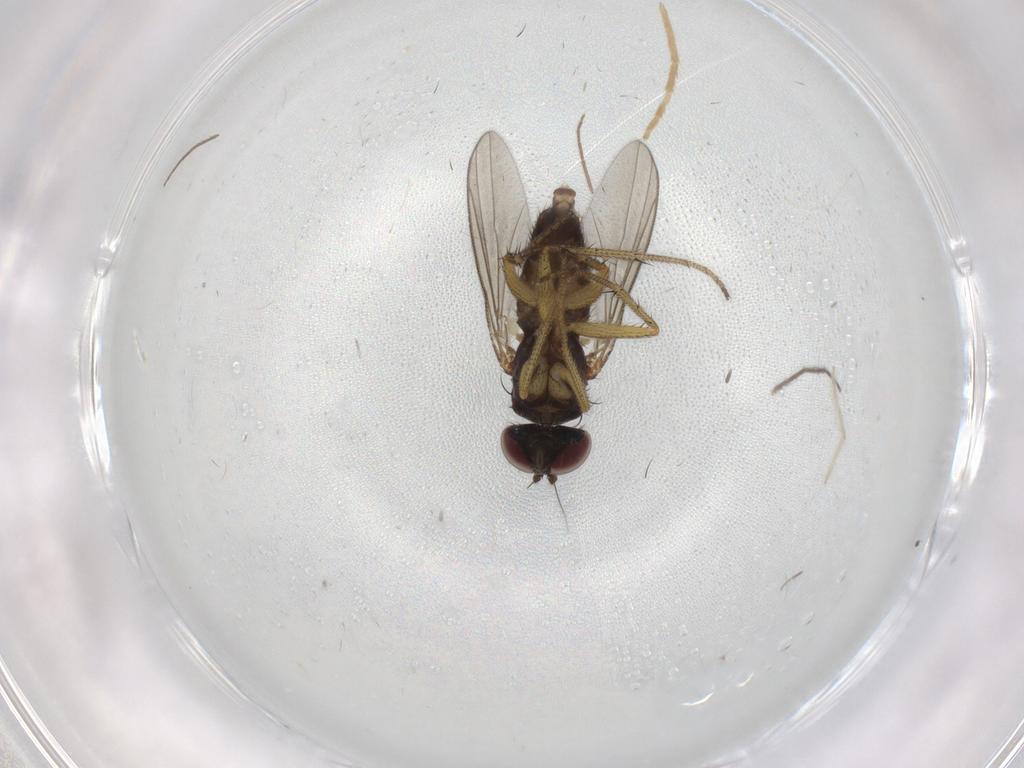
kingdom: Animalia
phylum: Arthropoda
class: Insecta
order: Diptera
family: Dolichopodidae
